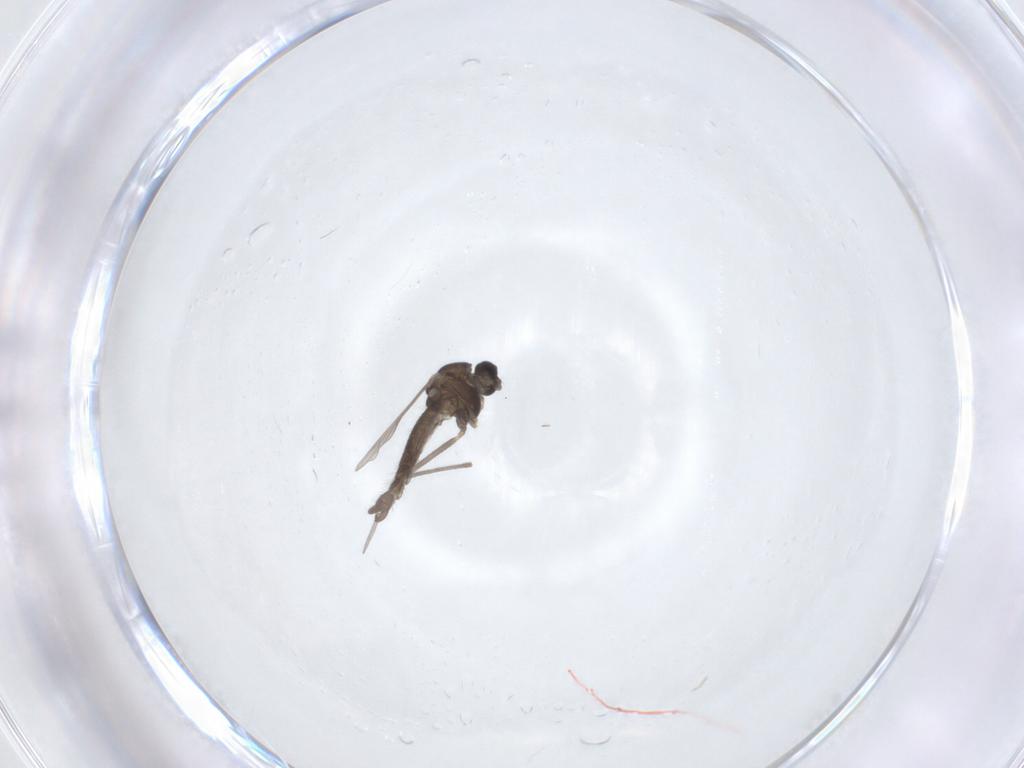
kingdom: Animalia
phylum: Arthropoda
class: Insecta
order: Diptera
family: Chironomidae
